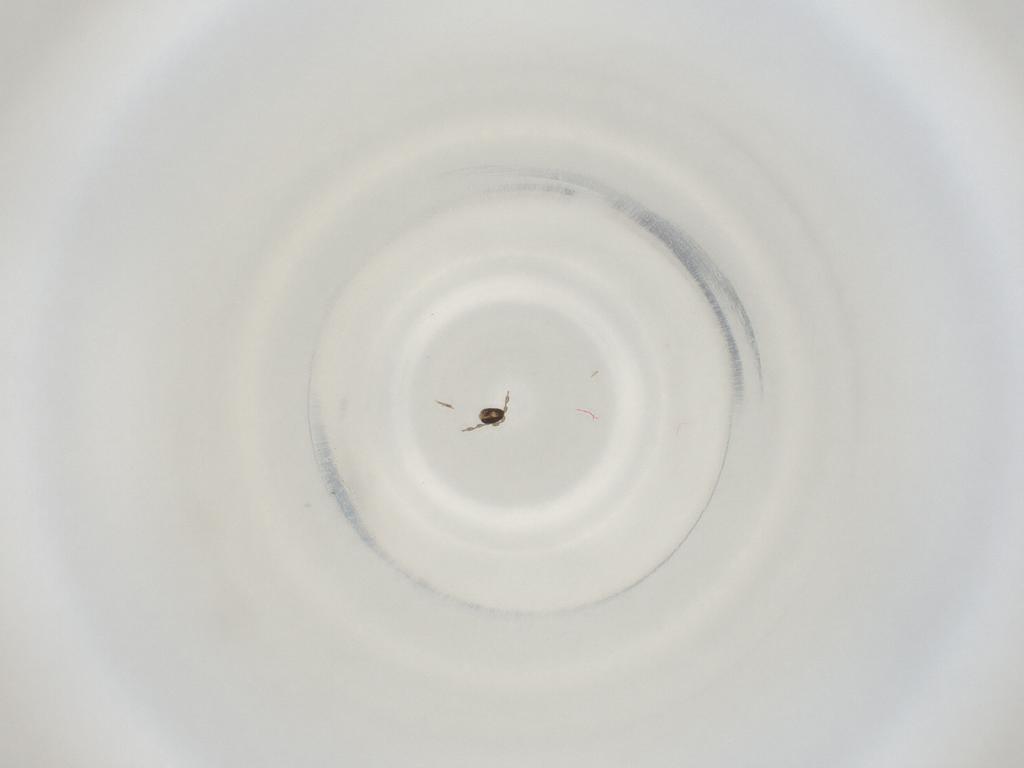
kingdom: Animalia
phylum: Arthropoda
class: Insecta
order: Diptera
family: Cecidomyiidae
